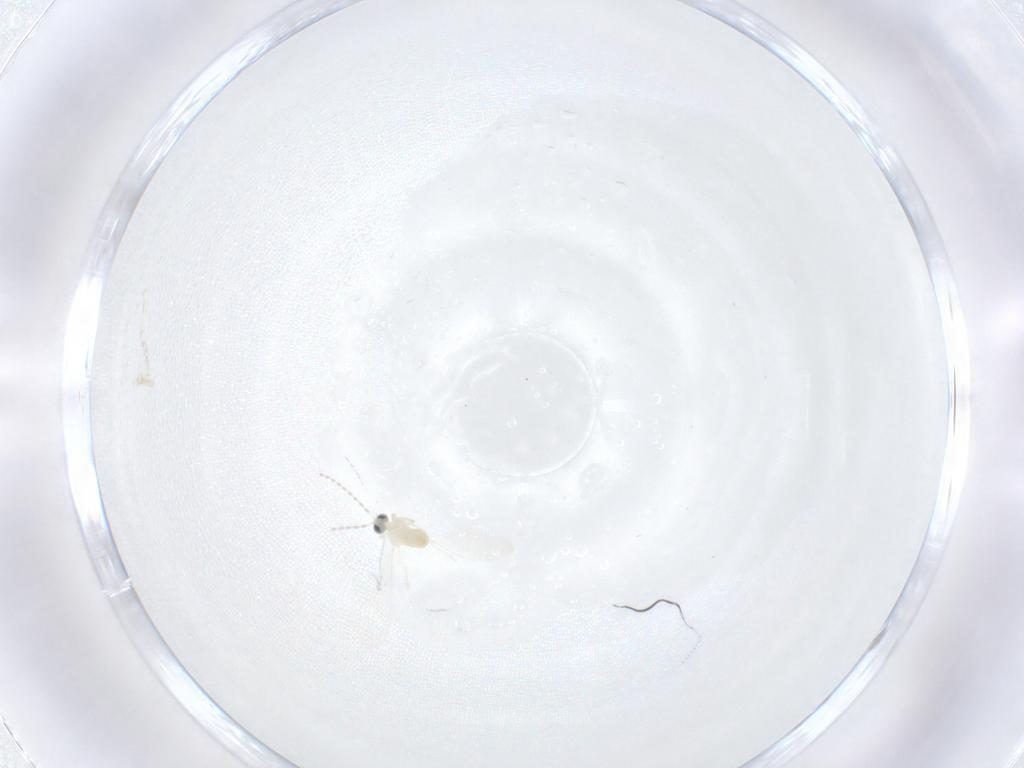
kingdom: Animalia
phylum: Arthropoda
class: Insecta
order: Diptera
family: Cecidomyiidae
